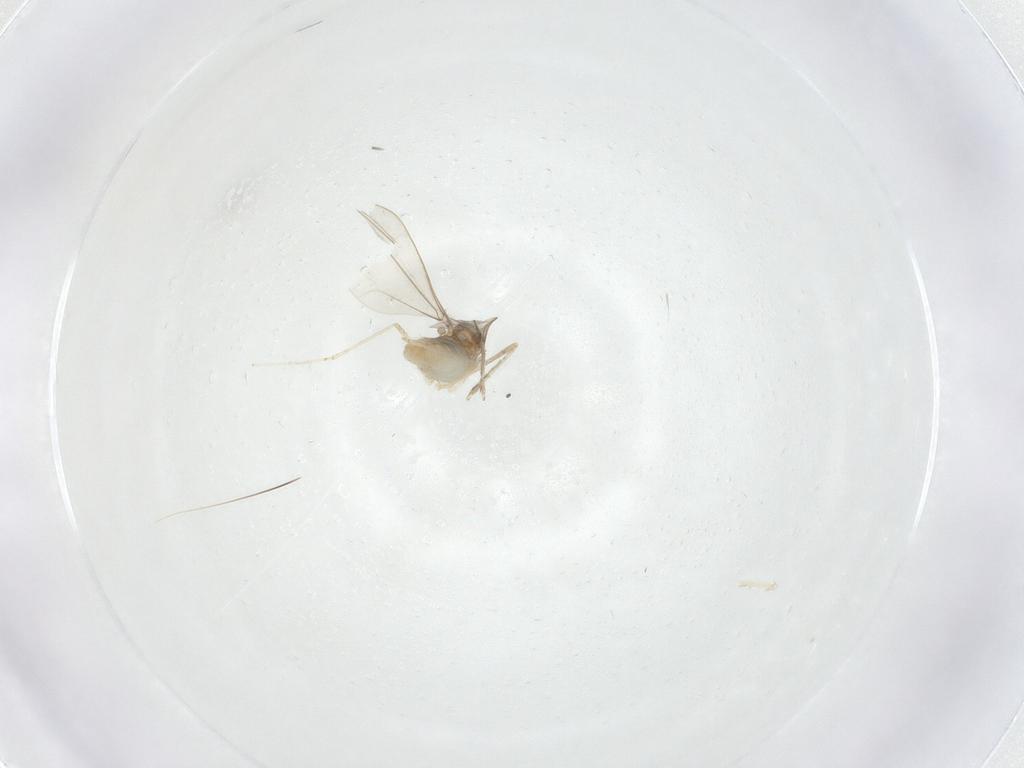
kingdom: Animalia
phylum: Arthropoda
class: Insecta
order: Diptera
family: Cecidomyiidae
